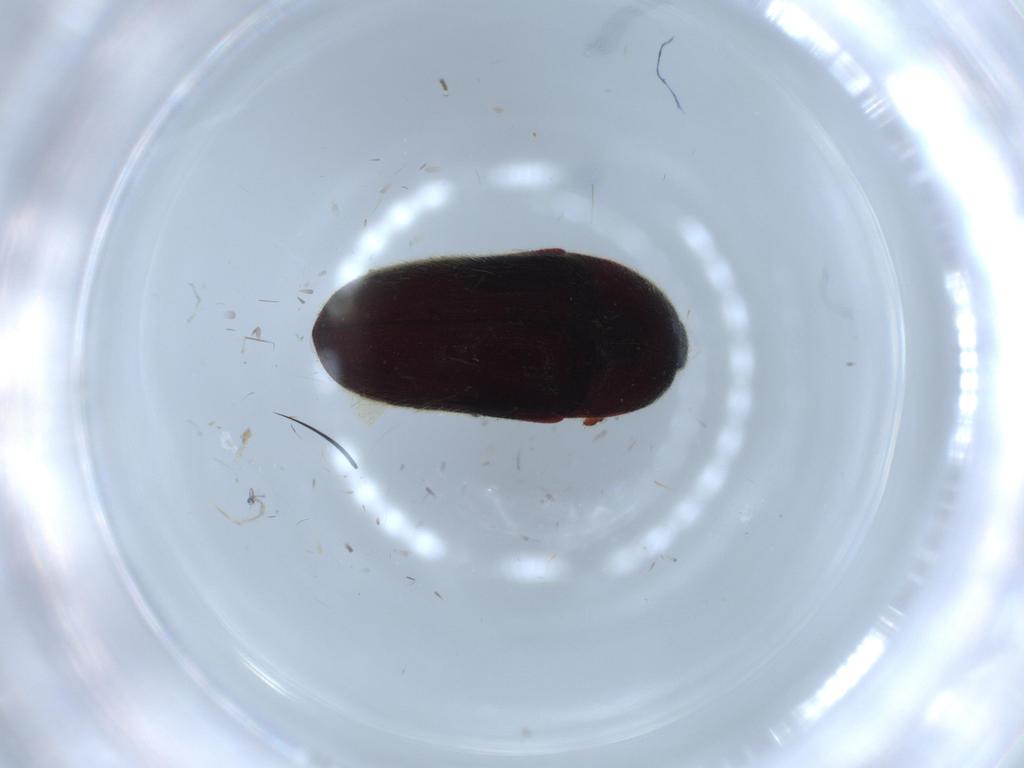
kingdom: Animalia
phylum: Arthropoda
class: Insecta
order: Coleoptera
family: Throscidae
